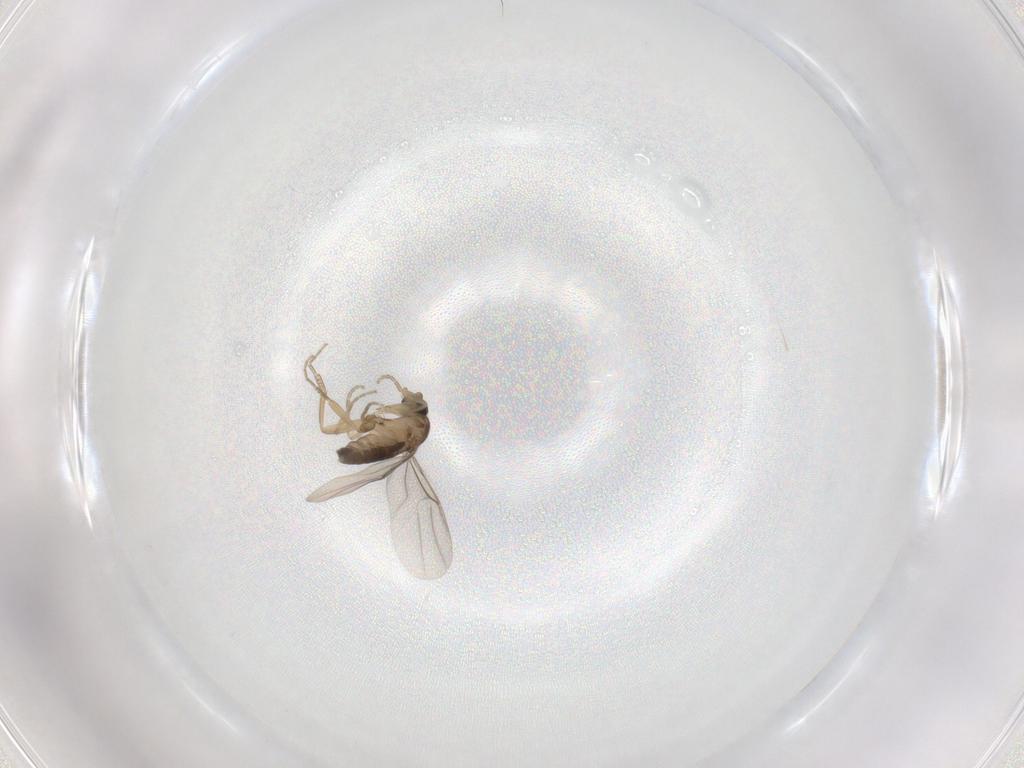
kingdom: Animalia
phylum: Arthropoda
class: Insecta
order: Diptera
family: Phoridae
